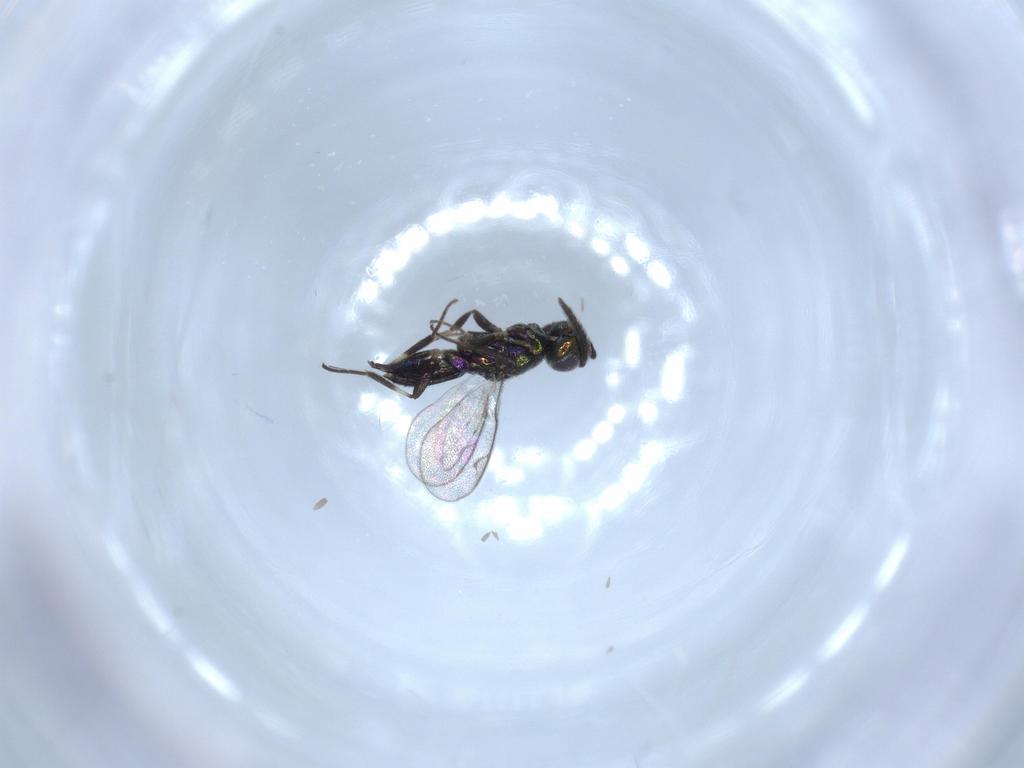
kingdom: Animalia
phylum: Arthropoda
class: Insecta
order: Hymenoptera
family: Eupelmidae
